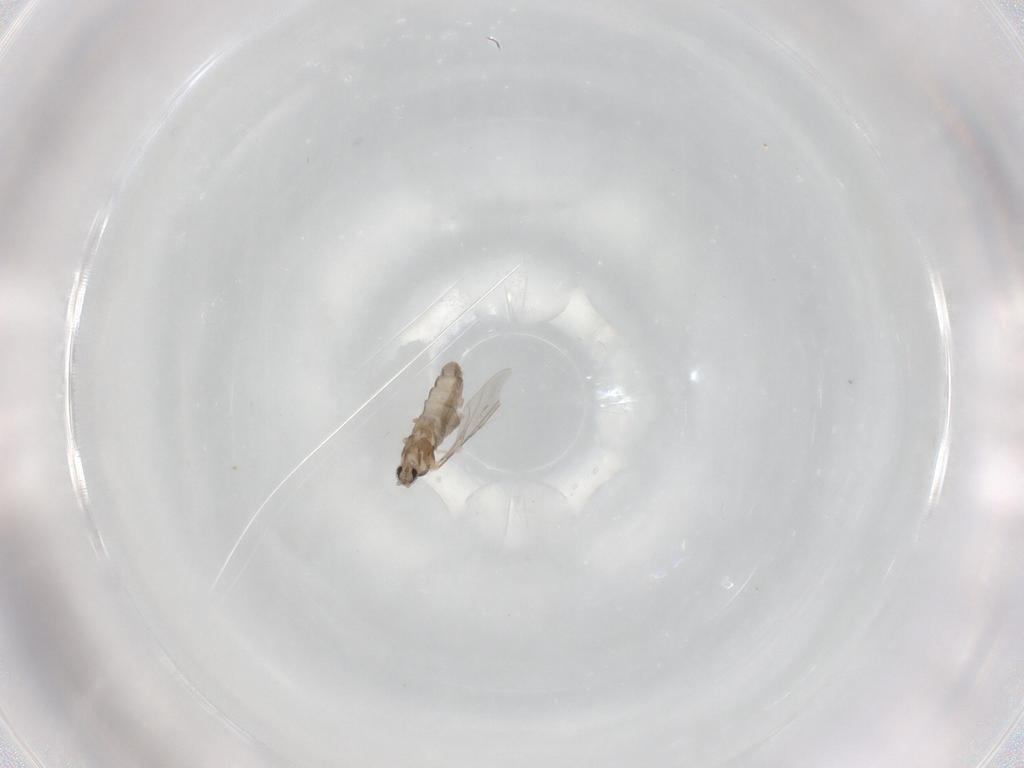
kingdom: Animalia
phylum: Arthropoda
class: Insecta
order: Diptera
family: Cecidomyiidae
